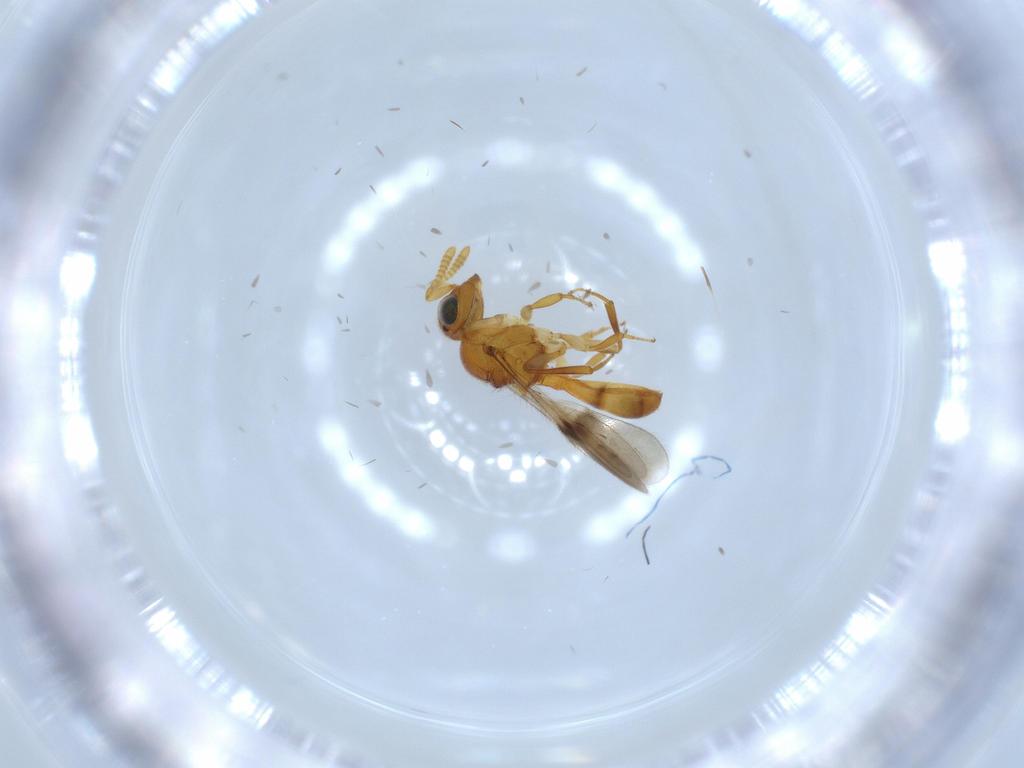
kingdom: Animalia
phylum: Arthropoda
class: Insecta
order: Hymenoptera
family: Scelionidae
